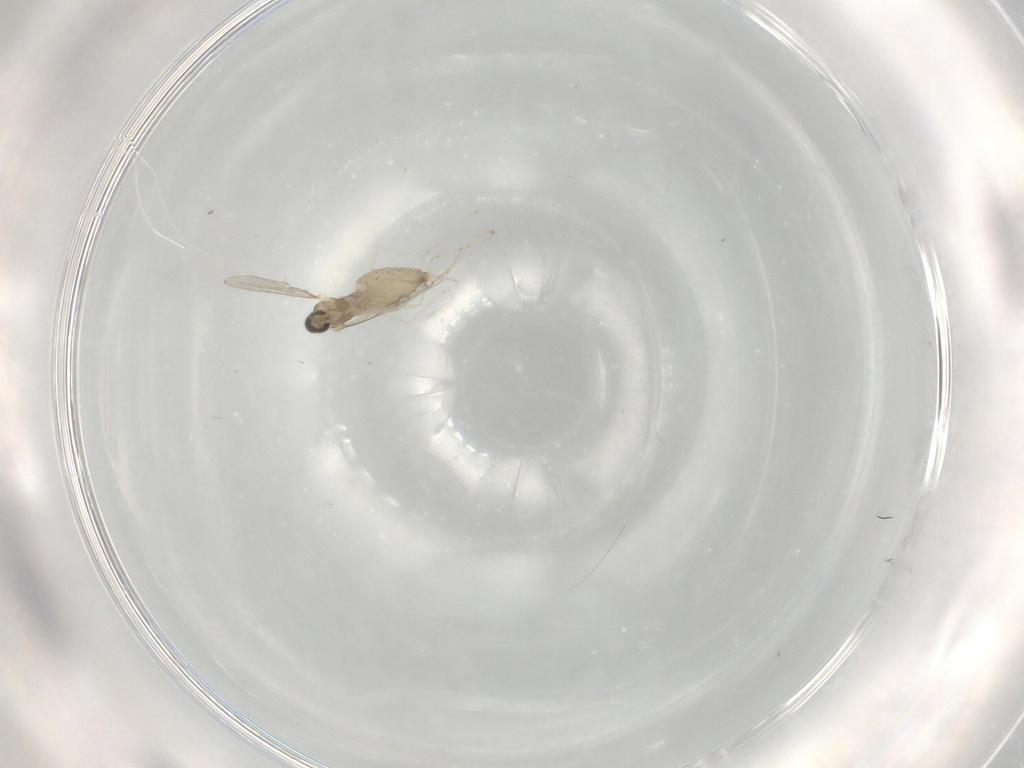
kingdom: Animalia
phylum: Arthropoda
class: Insecta
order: Diptera
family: Cecidomyiidae
